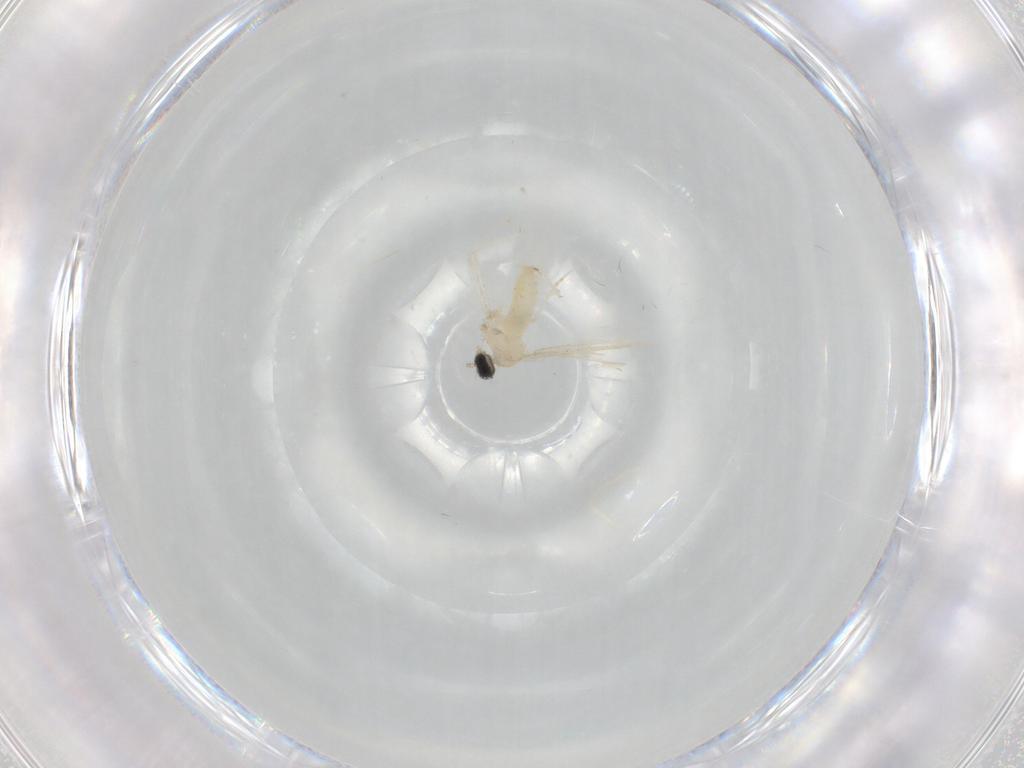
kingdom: Animalia
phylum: Arthropoda
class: Insecta
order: Diptera
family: Cecidomyiidae
